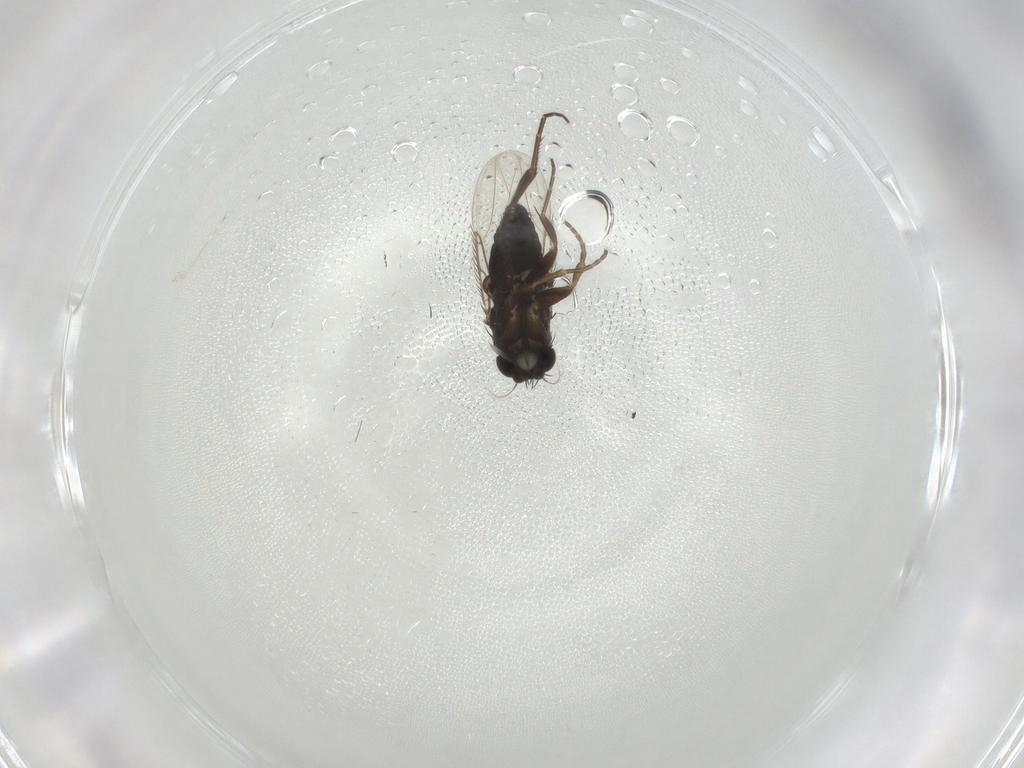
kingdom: Animalia
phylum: Arthropoda
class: Insecta
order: Diptera
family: Phoridae
